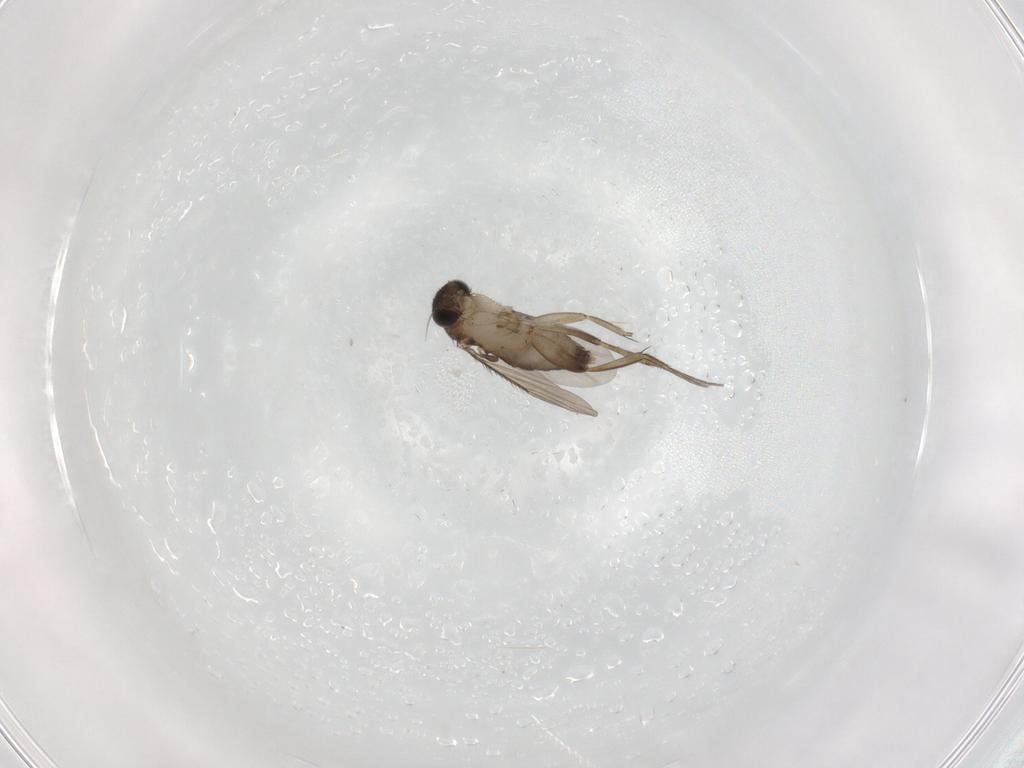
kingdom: Animalia
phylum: Arthropoda
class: Insecta
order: Diptera
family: Phoridae
